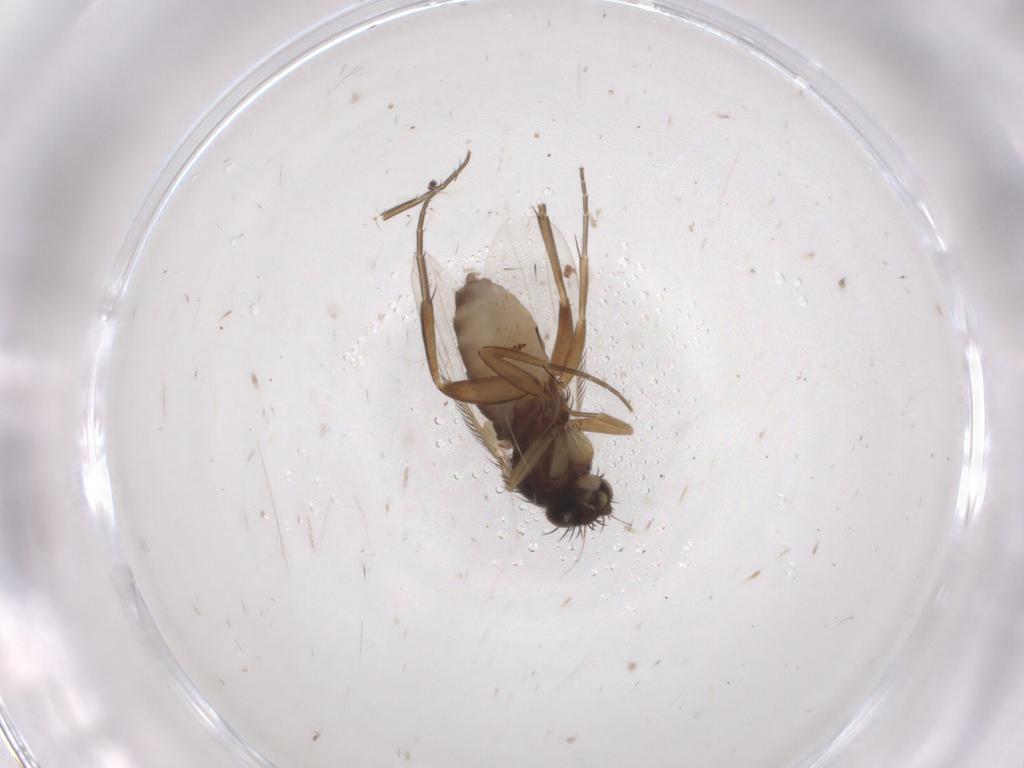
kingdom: Animalia
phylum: Arthropoda
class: Insecta
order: Diptera
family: Phoridae
